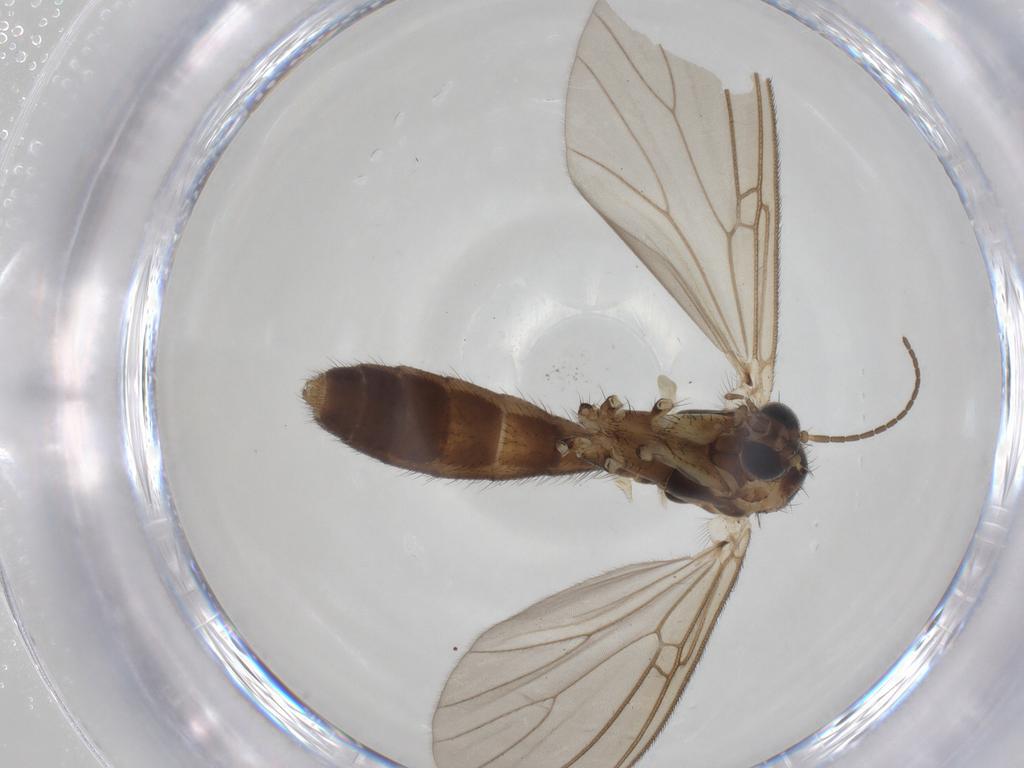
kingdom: Animalia
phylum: Arthropoda
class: Insecta
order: Diptera
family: Mycetophilidae
